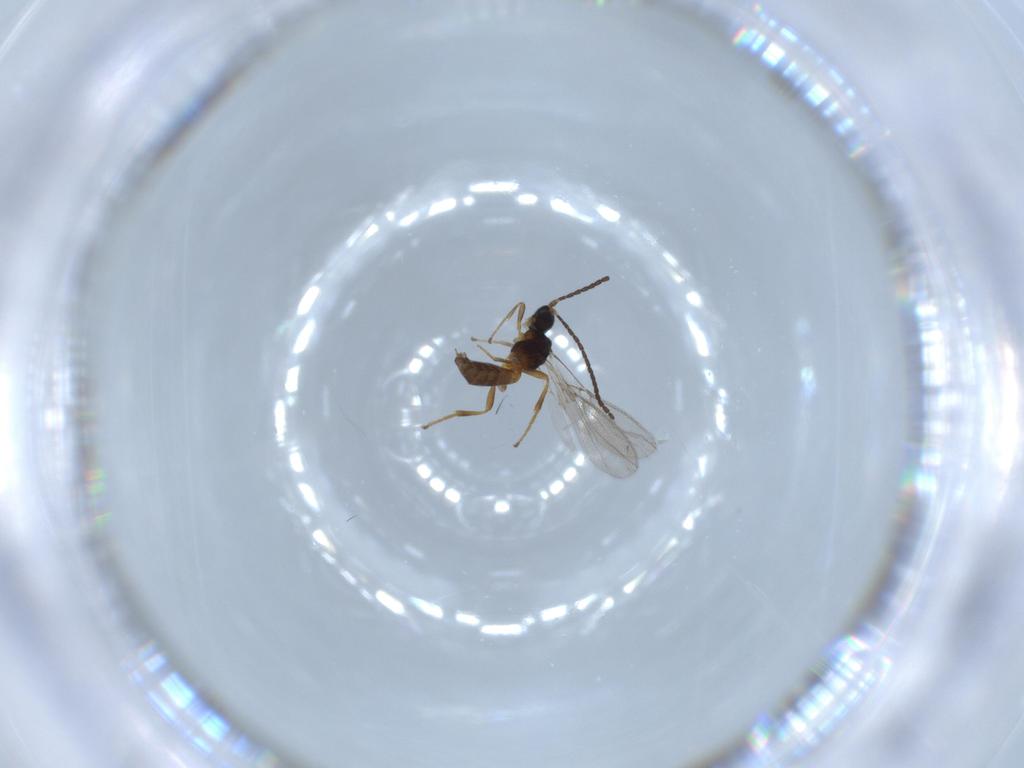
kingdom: Animalia
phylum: Arthropoda
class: Insecta
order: Hymenoptera
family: Braconidae
